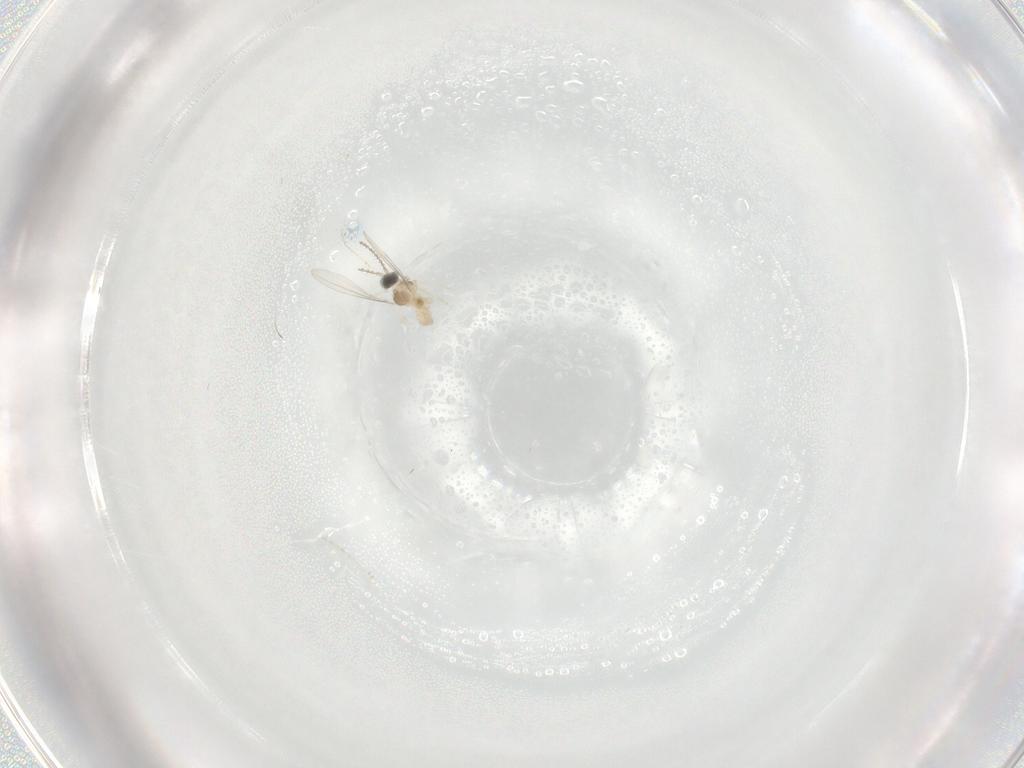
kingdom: Animalia
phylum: Arthropoda
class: Insecta
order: Diptera
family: Cecidomyiidae
